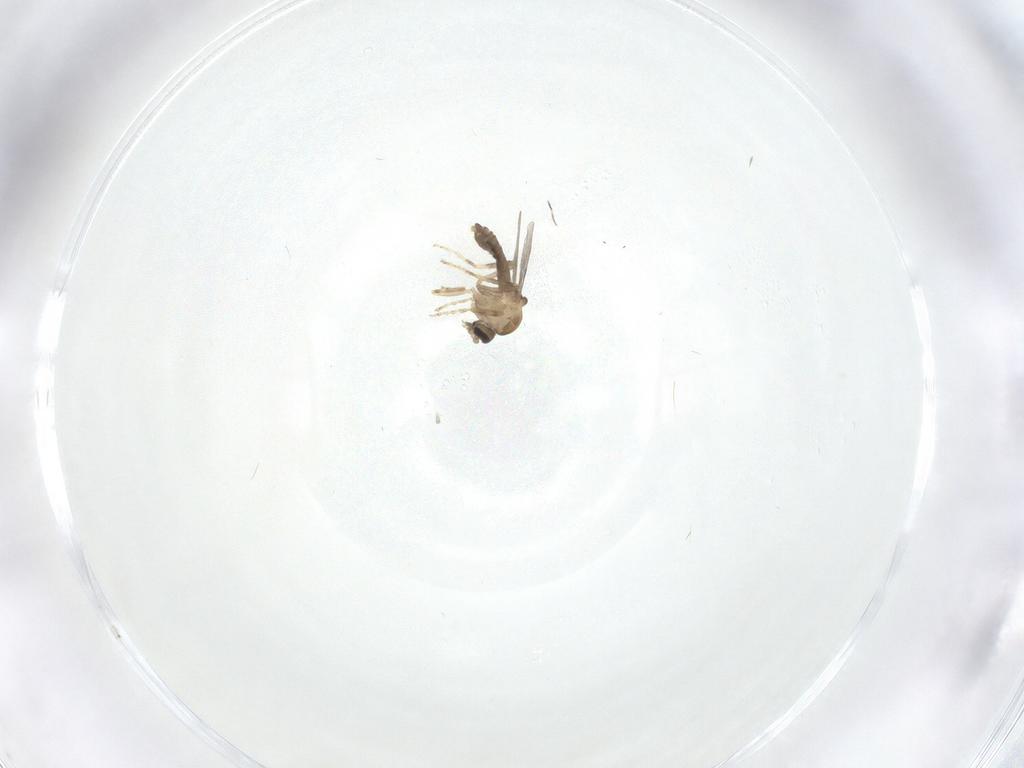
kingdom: Animalia
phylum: Arthropoda
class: Insecta
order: Diptera
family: Ceratopogonidae
